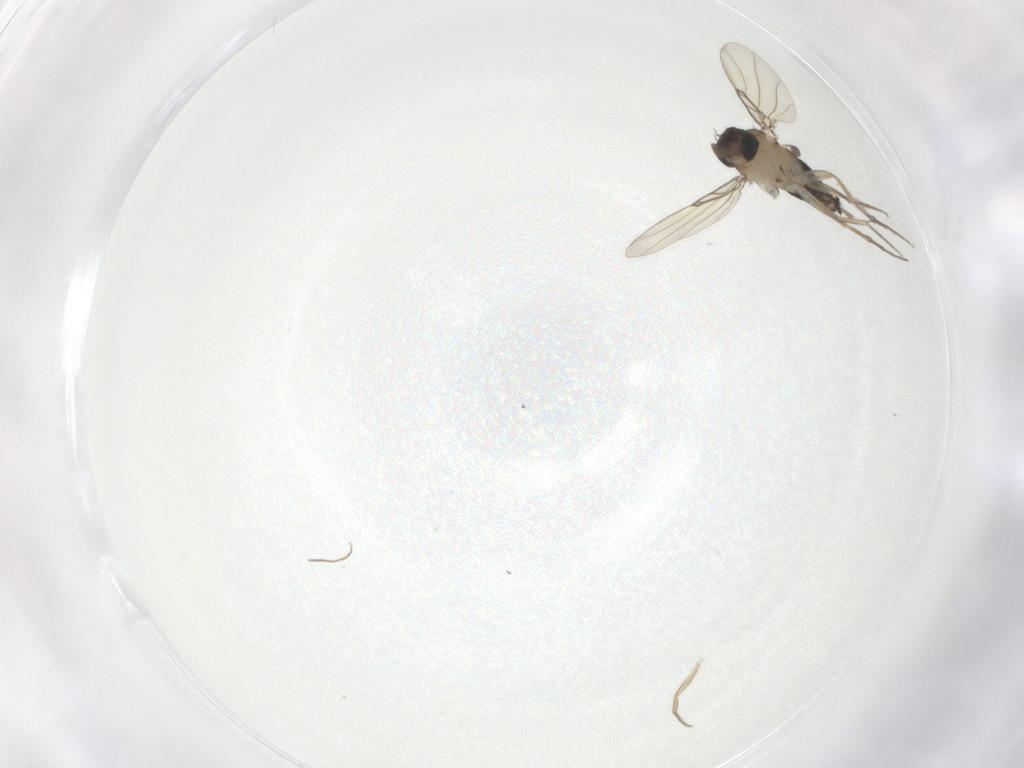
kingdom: Animalia
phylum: Arthropoda
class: Insecta
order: Diptera
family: Phoridae
